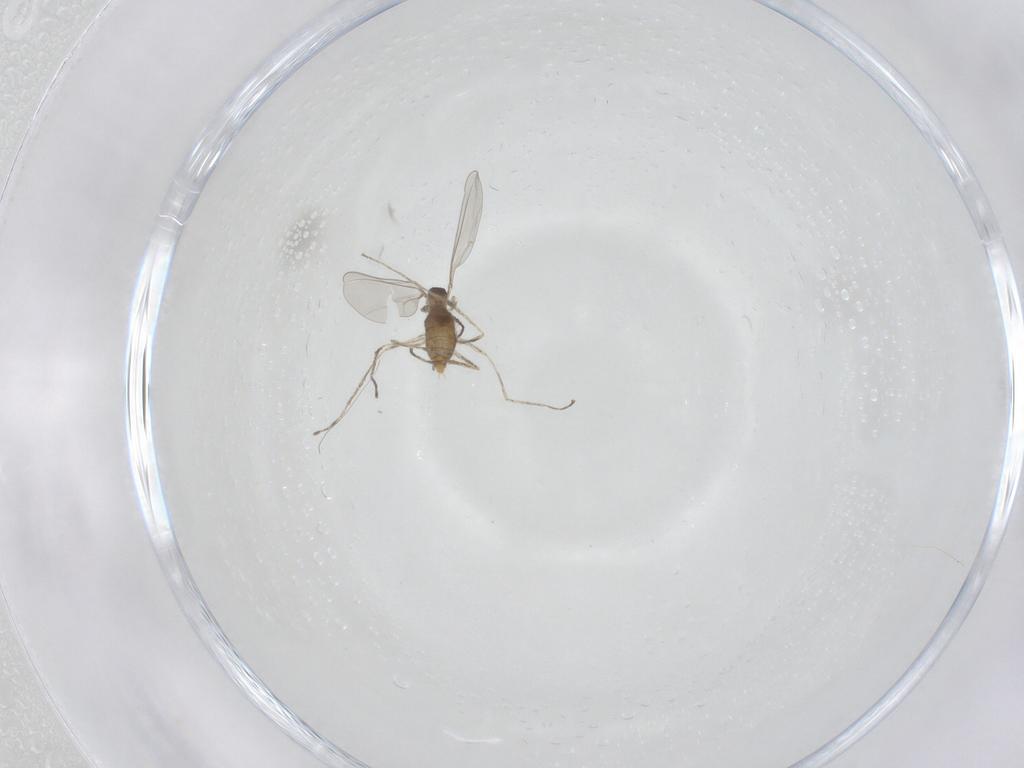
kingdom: Animalia
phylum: Arthropoda
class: Insecta
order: Diptera
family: Cecidomyiidae
